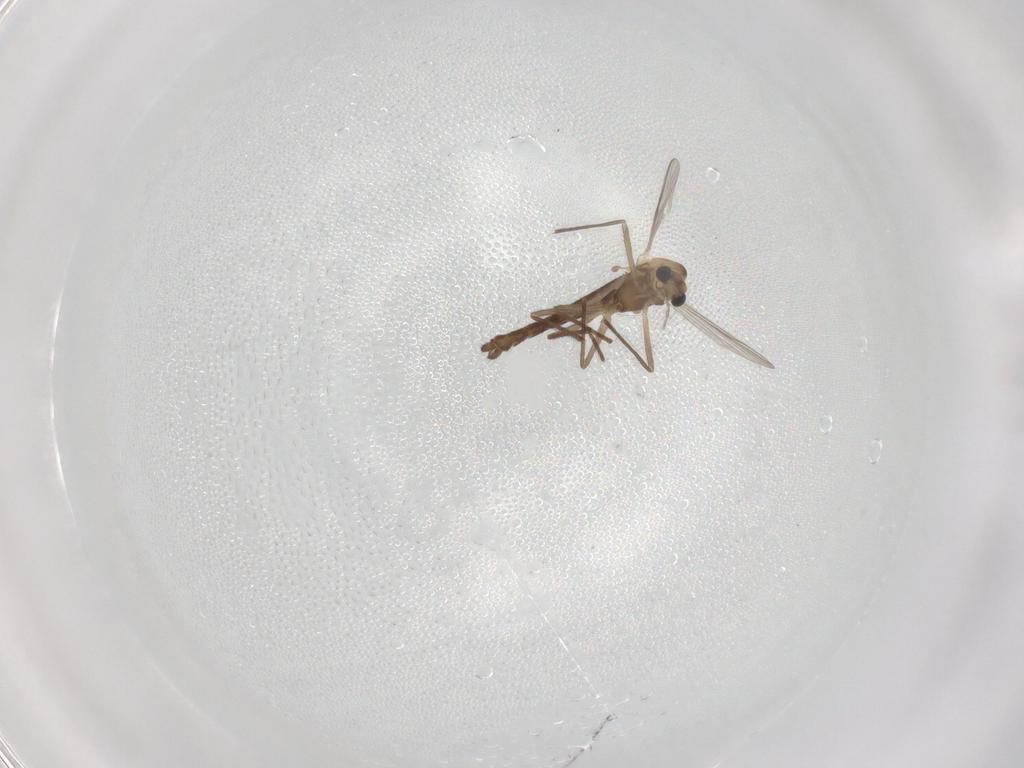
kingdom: Animalia
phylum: Arthropoda
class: Insecta
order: Diptera
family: Chironomidae
